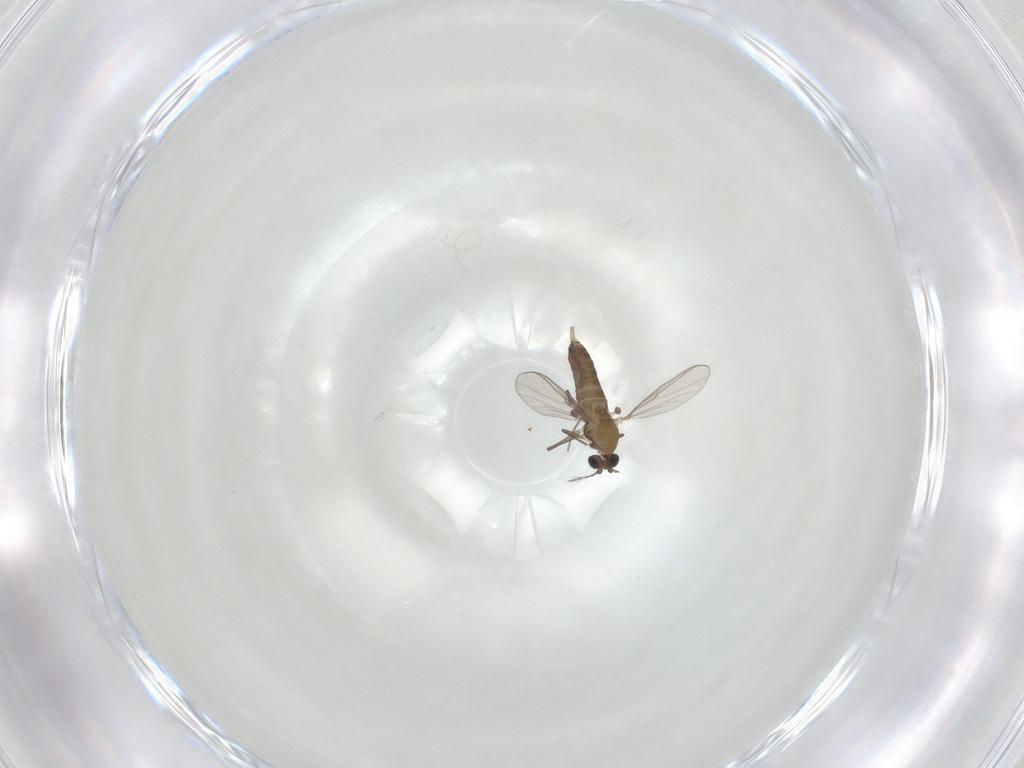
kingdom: Animalia
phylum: Arthropoda
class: Insecta
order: Diptera
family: Chironomidae
